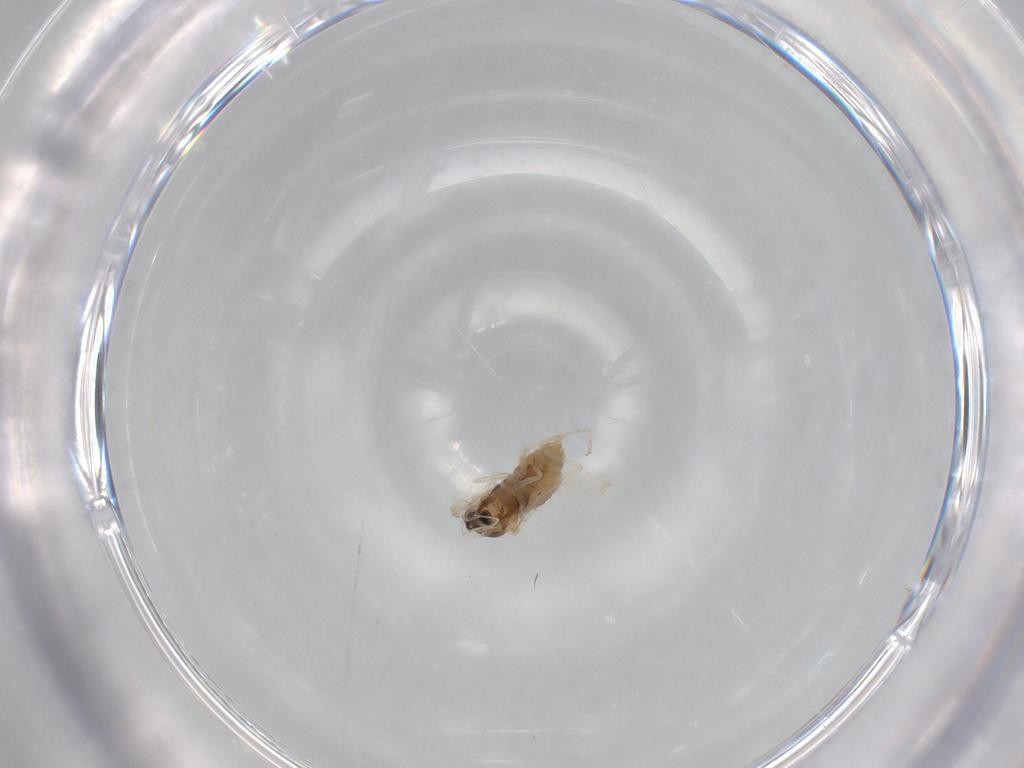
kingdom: Animalia
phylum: Arthropoda
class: Insecta
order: Diptera
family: Cecidomyiidae
